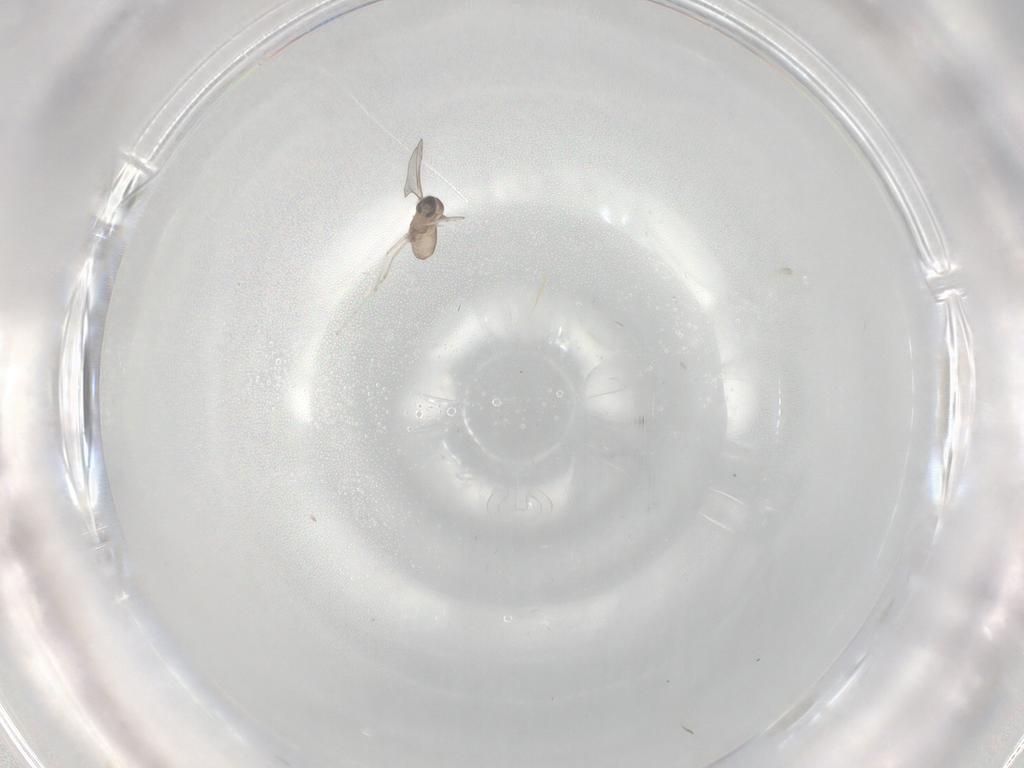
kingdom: Animalia
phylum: Arthropoda
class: Insecta
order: Diptera
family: Cecidomyiidae
